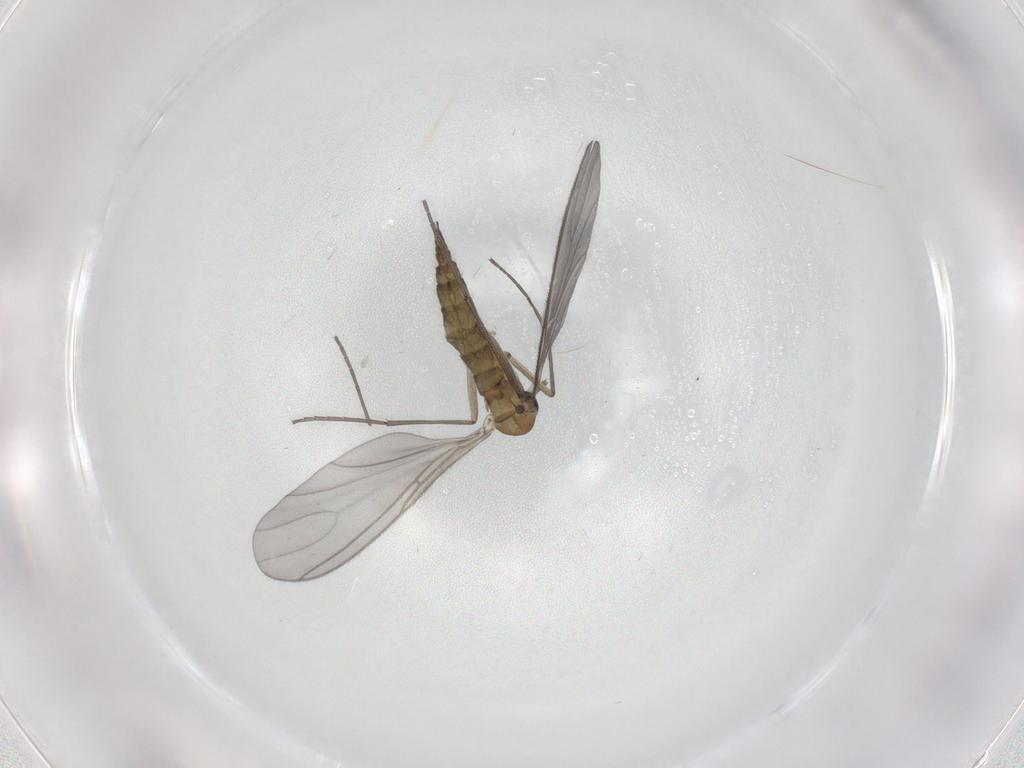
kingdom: Animalia
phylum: Arthropoda
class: Insecta
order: Diptera
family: Sciaridae
